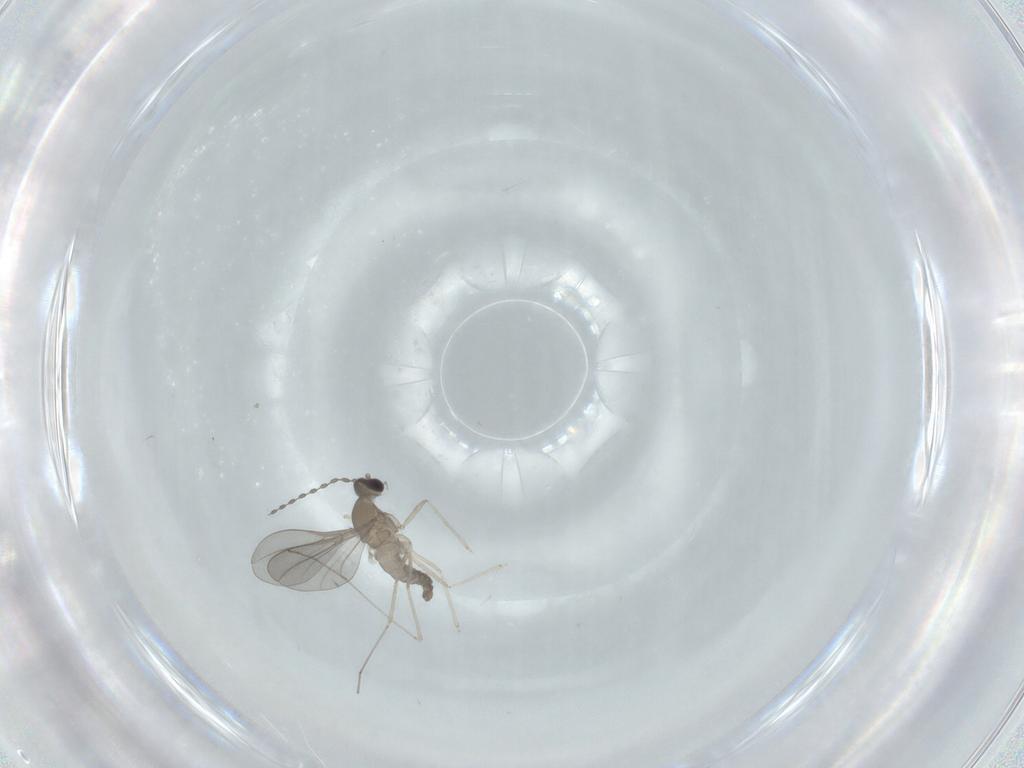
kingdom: Animalia
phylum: Arthropoda
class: Insecta
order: Diptera
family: Cecidomyiidae
